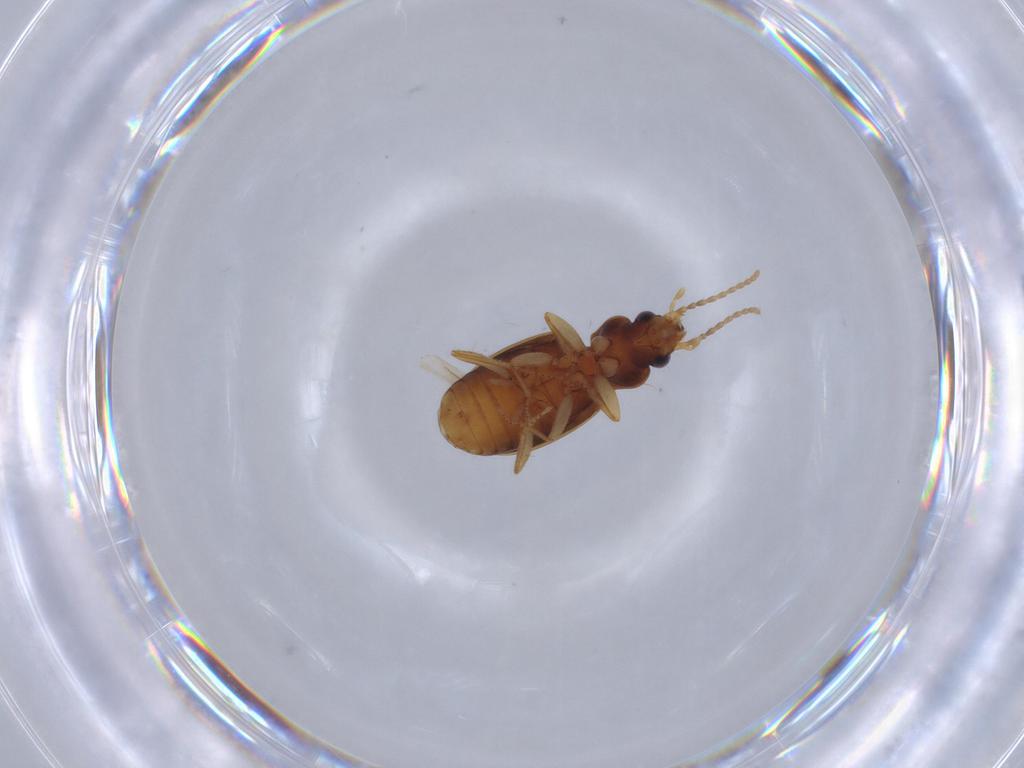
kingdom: Animalia
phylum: Arthropoda
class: Insecta
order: Coleoptera
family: Carabidae
